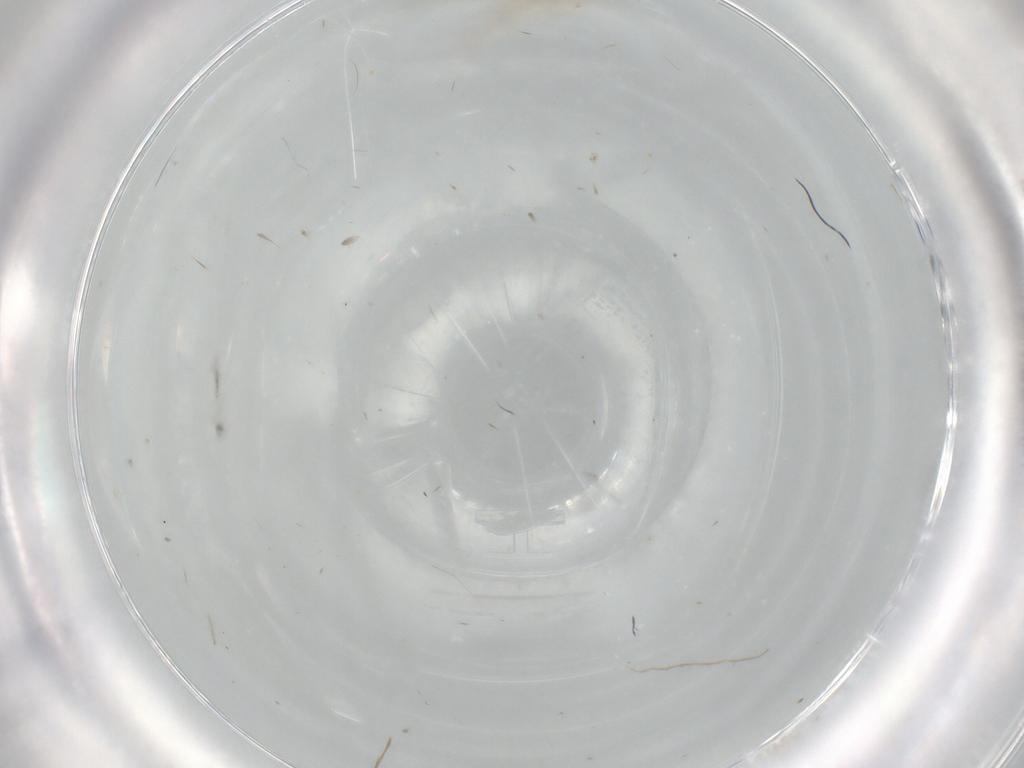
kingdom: Animalia
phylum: Arthropoda
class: Insecta
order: Lepidoptera
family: Gracillariidae
